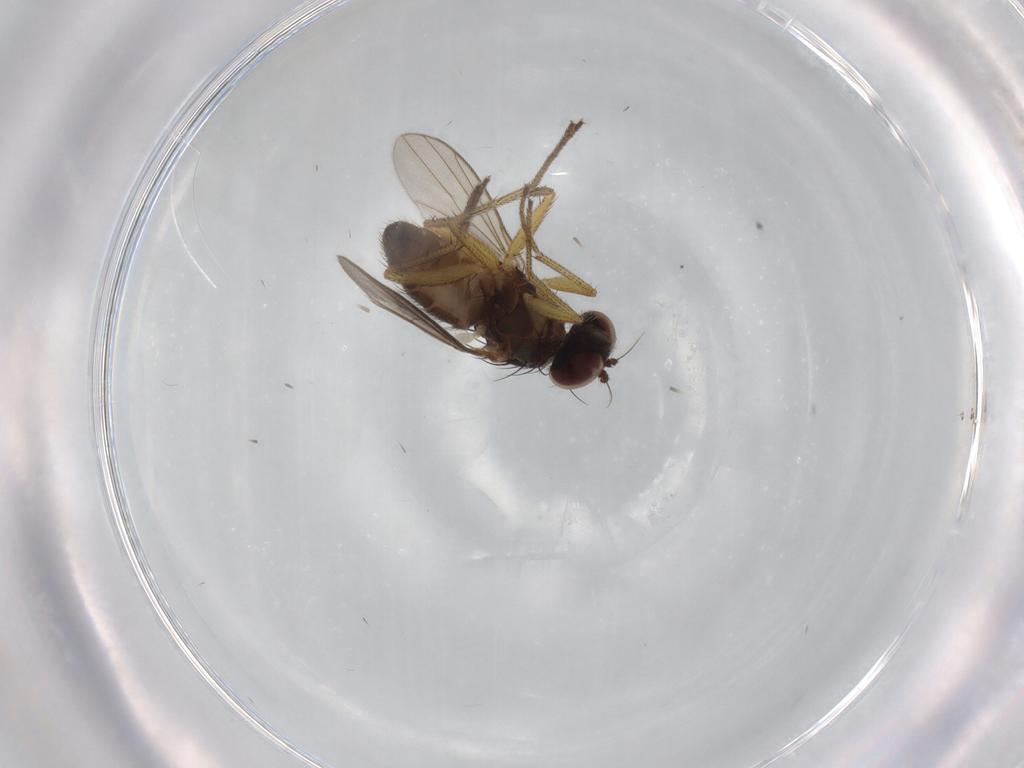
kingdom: Animalia
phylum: Arthropoda
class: Insecta
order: Diptera
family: Dolichopodidae
